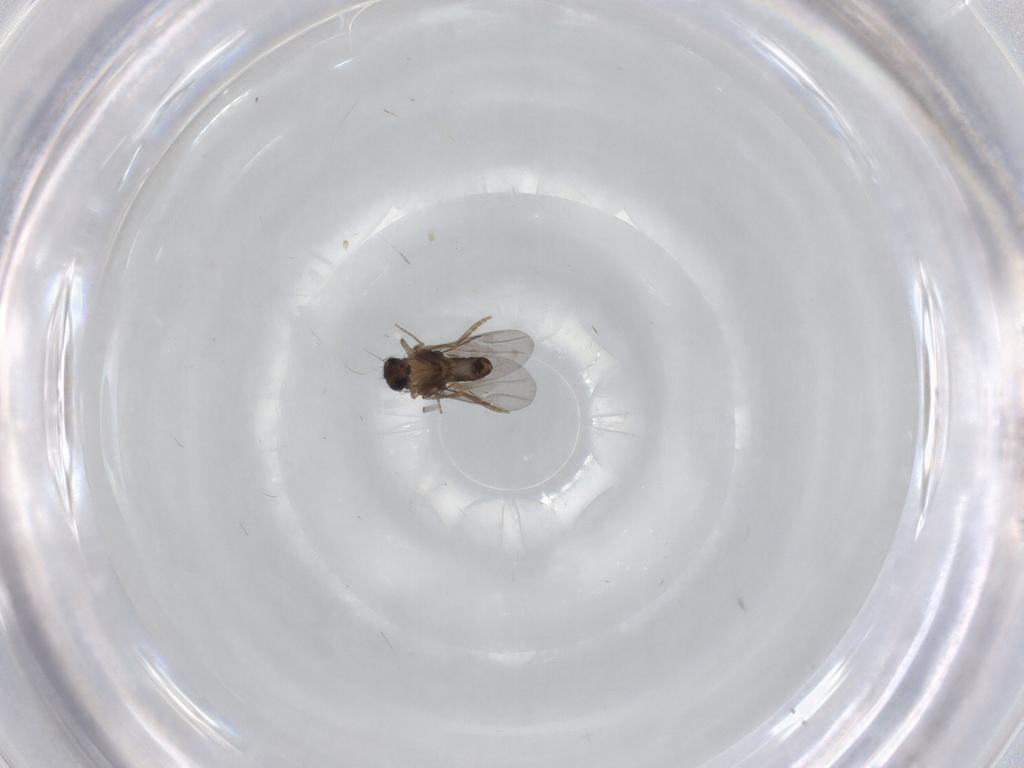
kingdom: Animalia
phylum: Arthropoda
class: Insecta
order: Diptera
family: Cecidomyiidae
